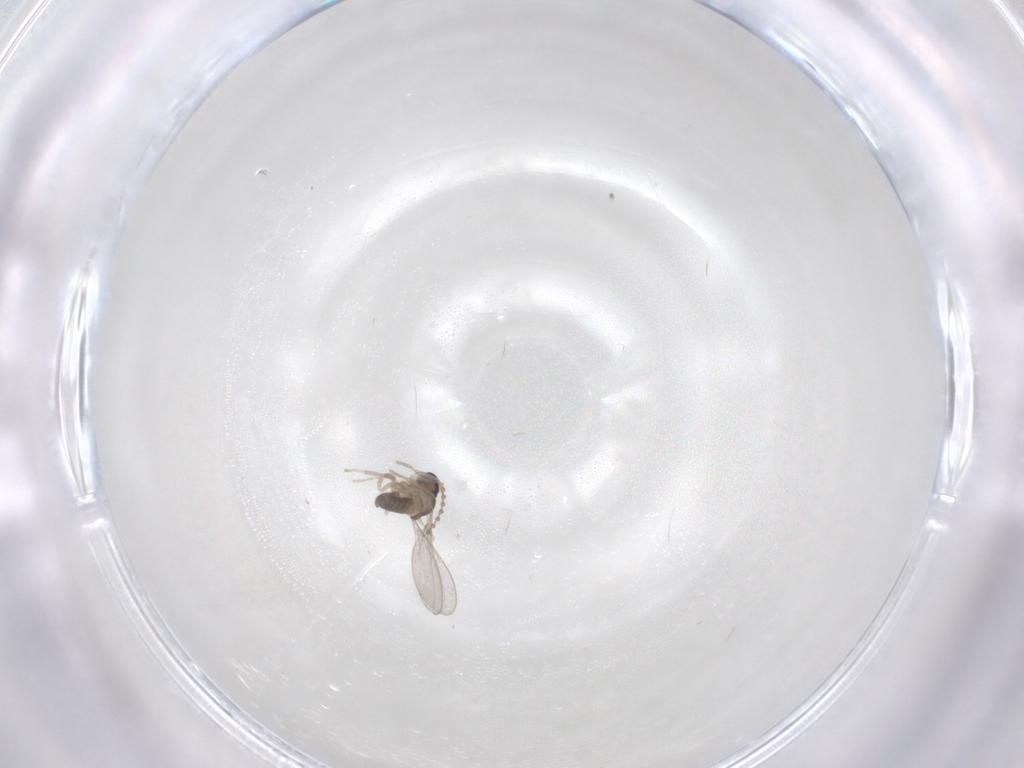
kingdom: Animalia
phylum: Arthropoda
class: Insecta
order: Diptera
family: Cecidomyiidae
